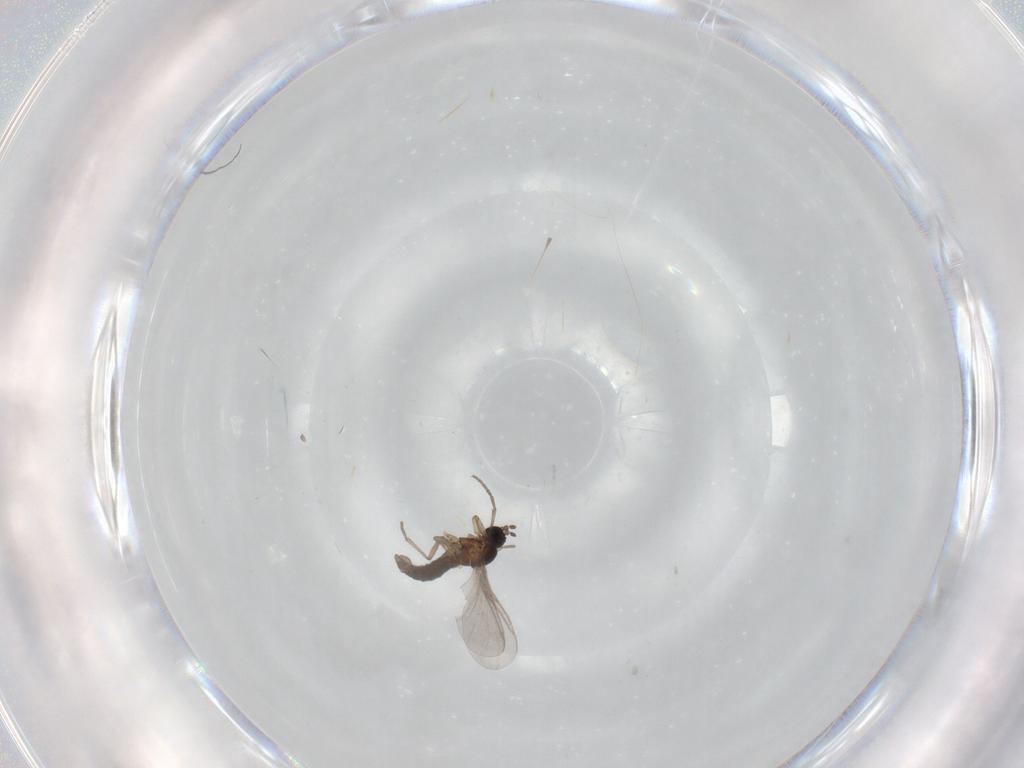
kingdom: Animalia
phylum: Arthropoda
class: Insecta
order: Diptera
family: Sciaridae
